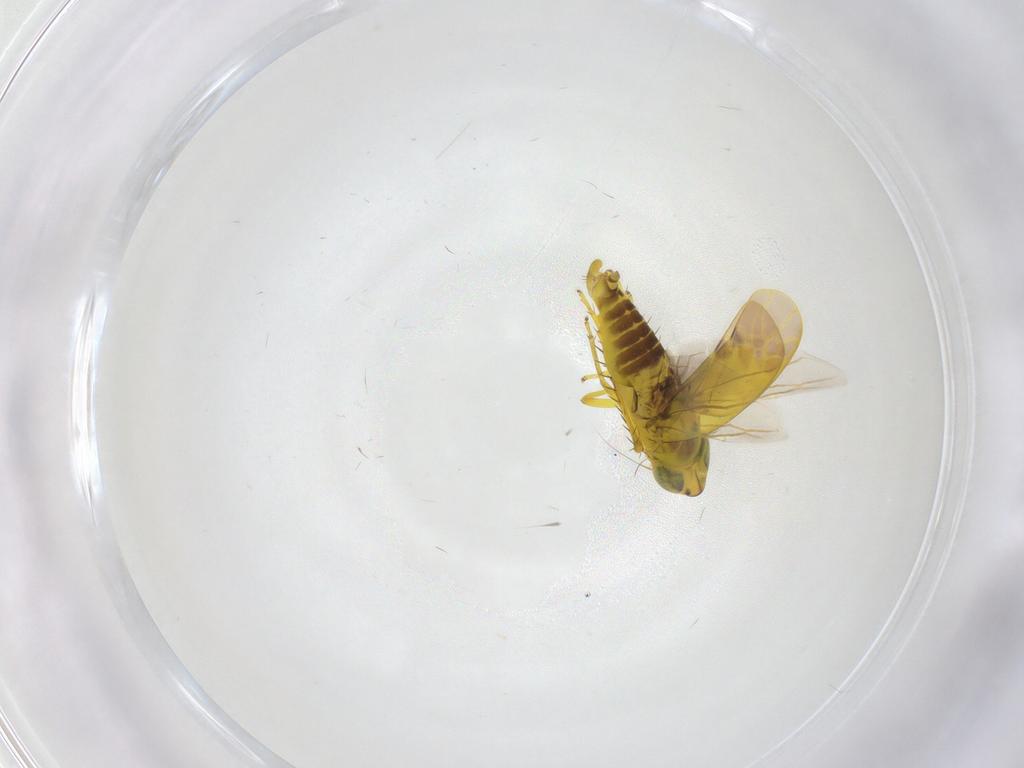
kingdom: Animalia
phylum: Arthropoda
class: Insecta
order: Hemiptera
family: Cicadellidae
